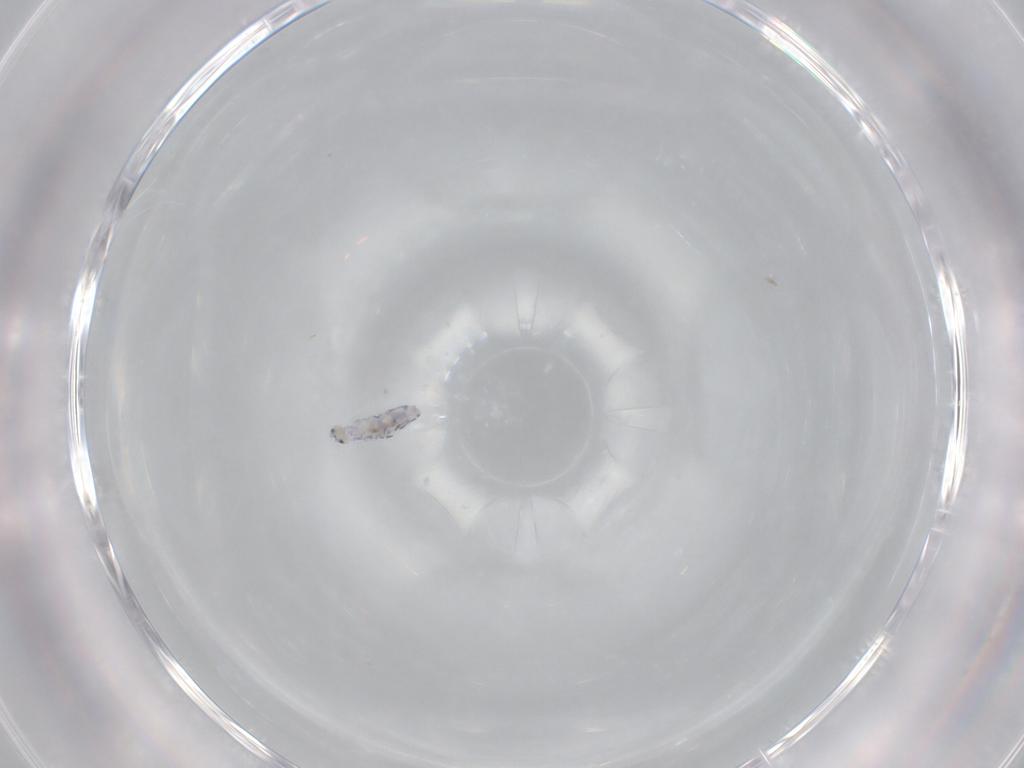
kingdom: Animalia
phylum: Arthropoda
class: Collembola
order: Entomobryomorpha
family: Entomobryidae
